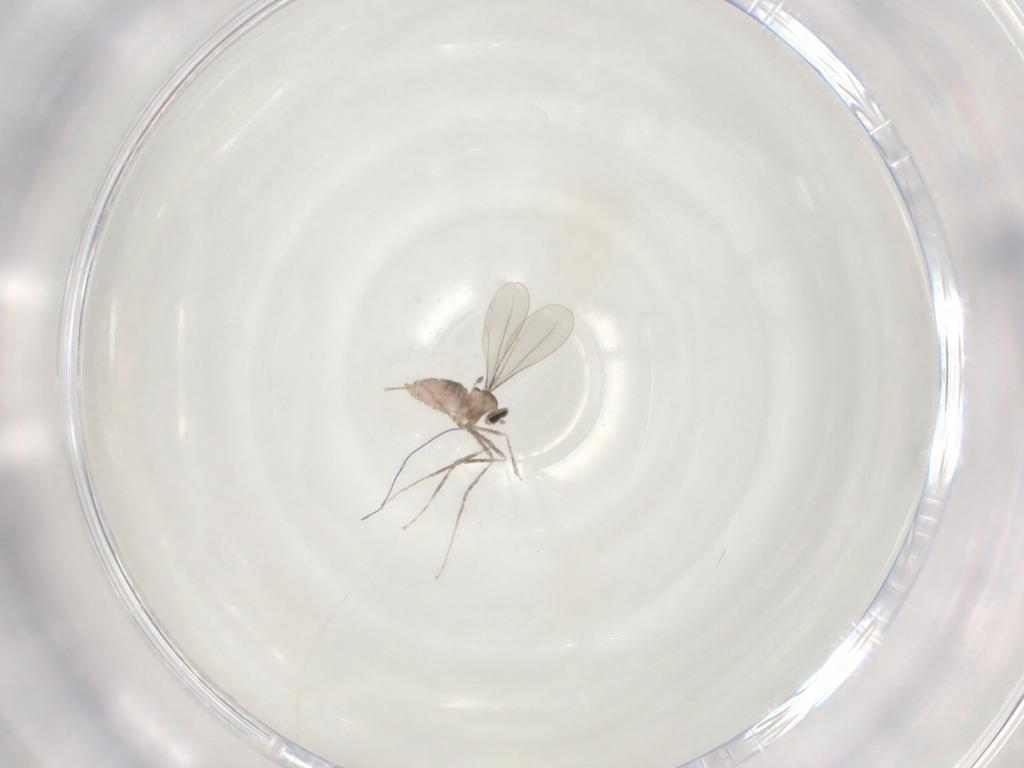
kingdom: Animalia
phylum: Arthropoda
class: Insecta
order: Diptera
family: Cecidomyiidae
